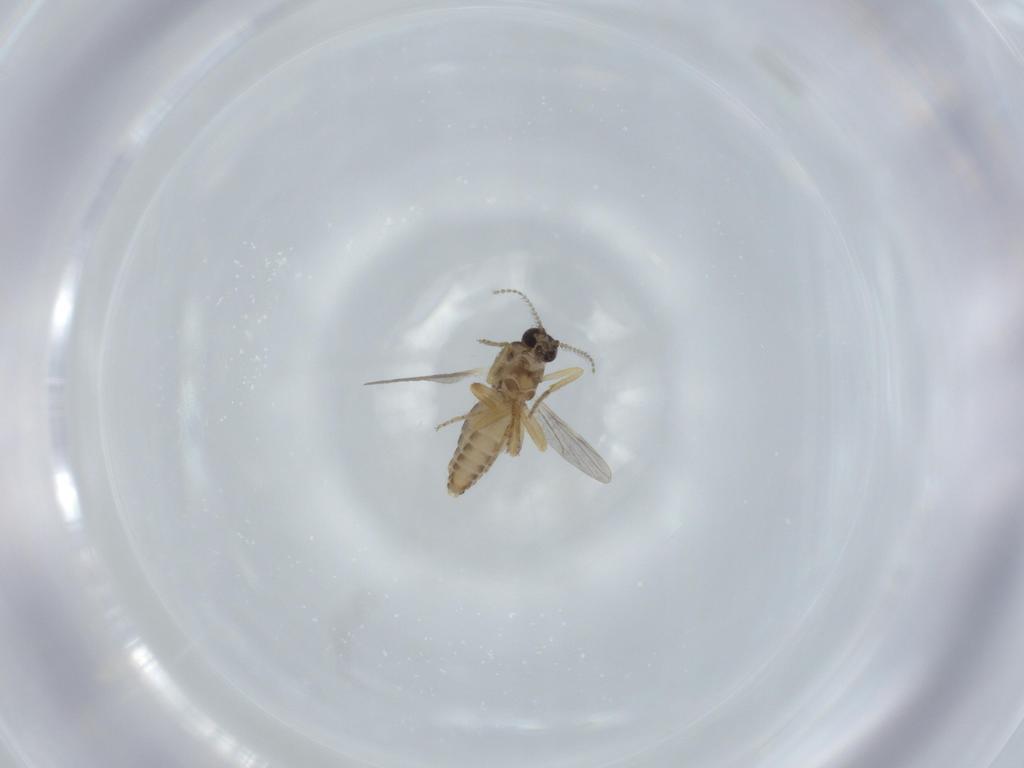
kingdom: Animalia
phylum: Arthropoda
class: Insecta
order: Diptera
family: Ceratopogonidae
